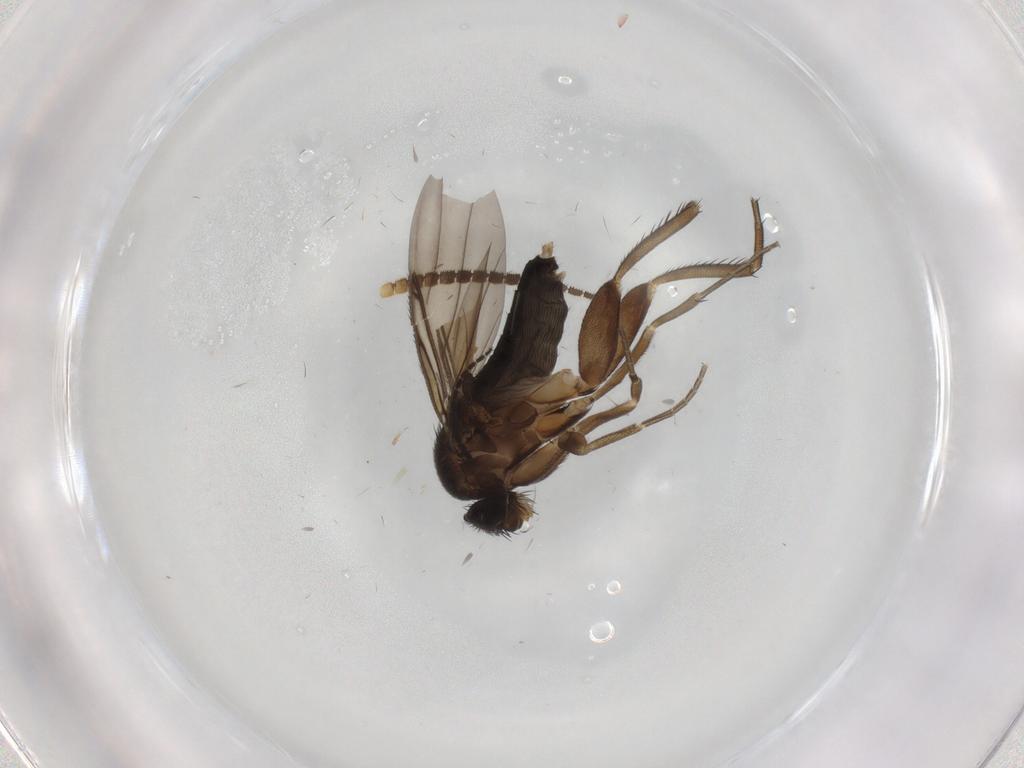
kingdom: Animalia
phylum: Arthropoda
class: Insecta
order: Diptera
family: Phoridae
